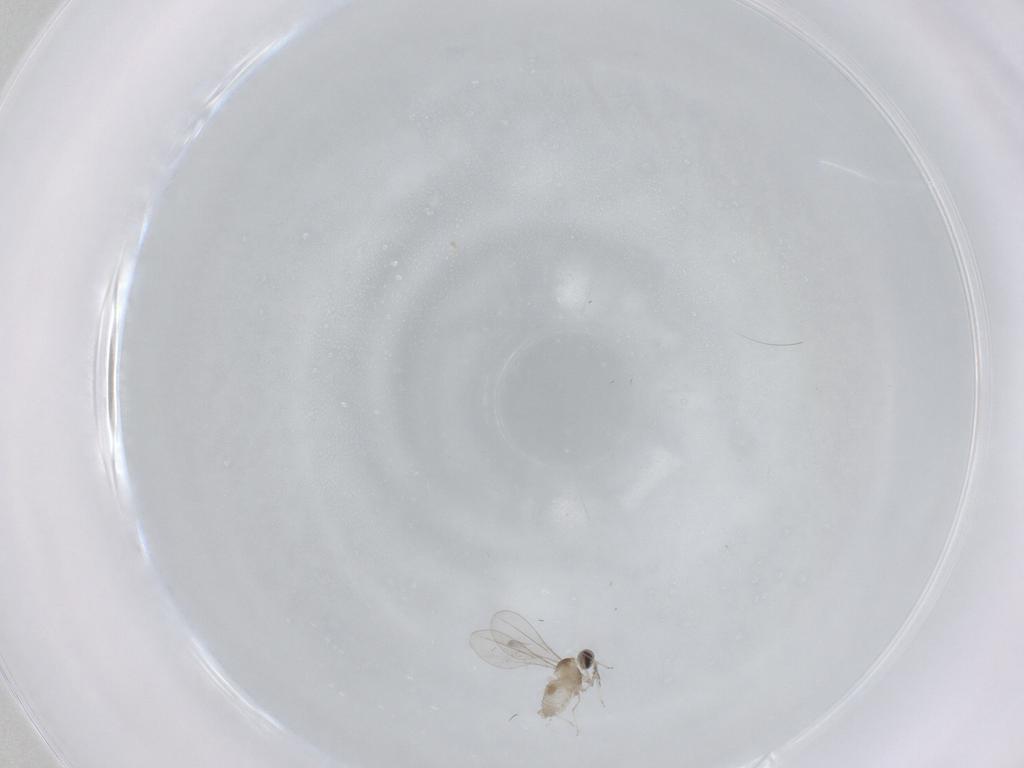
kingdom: Animalia
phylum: Arthropoda
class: Insecta
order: Diptera
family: Cecidomyiidae
